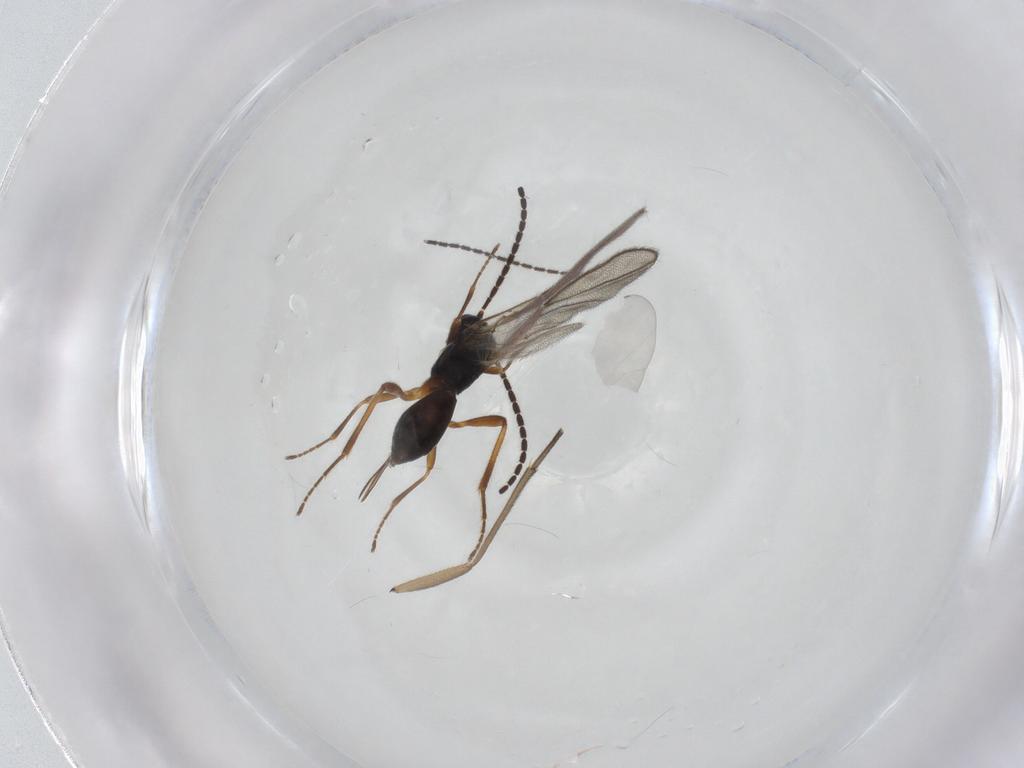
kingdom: Animalia
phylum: Arthropoda
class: Insecta
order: Hymenoptera
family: Braconidae
